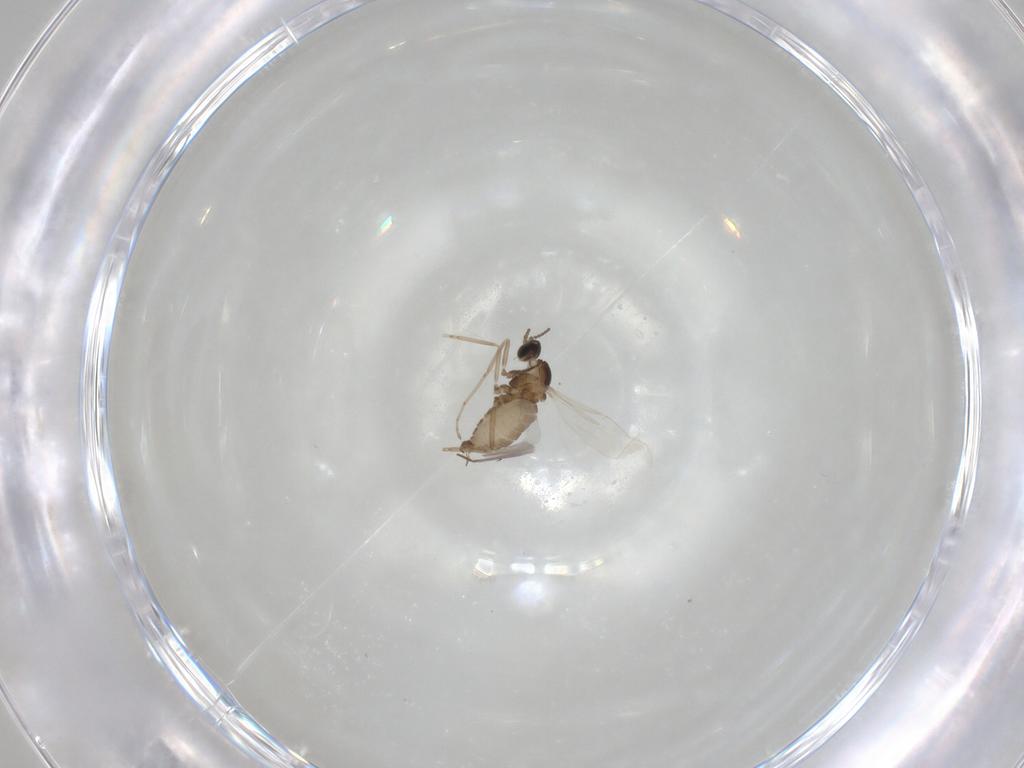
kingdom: Animalia
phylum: Arthropoda
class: Insecta
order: Diptera
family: Cecidomyiidae
